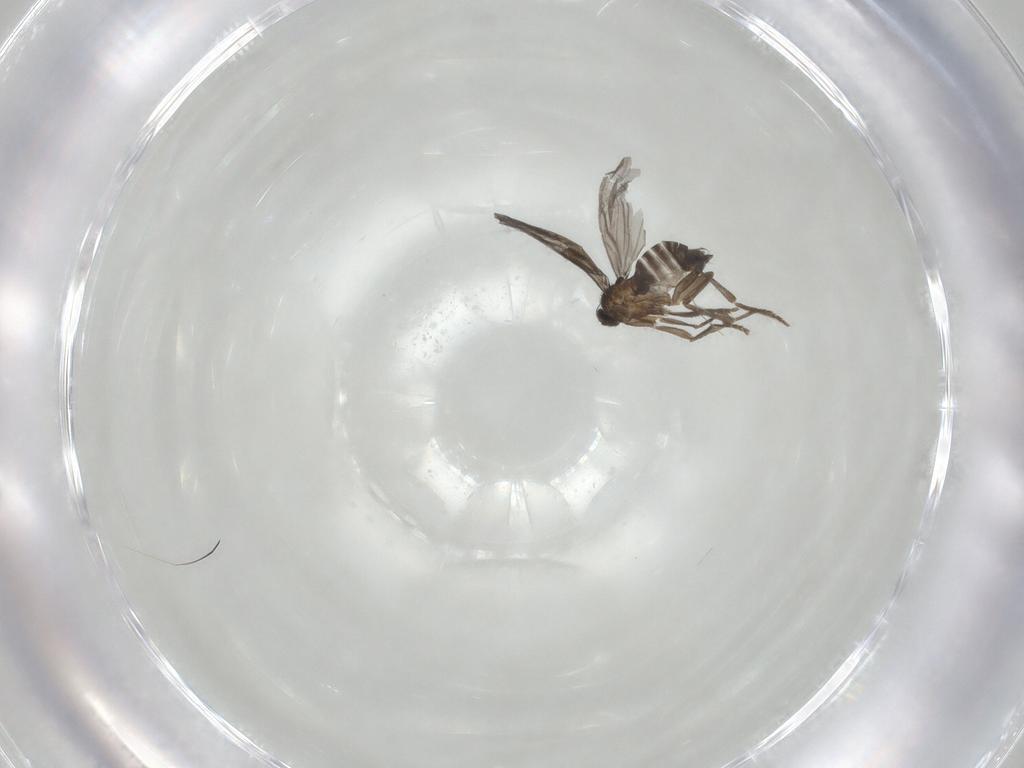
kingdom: Animalia
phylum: Arthropoda
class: Insecta
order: Diptera
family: Phoridae
